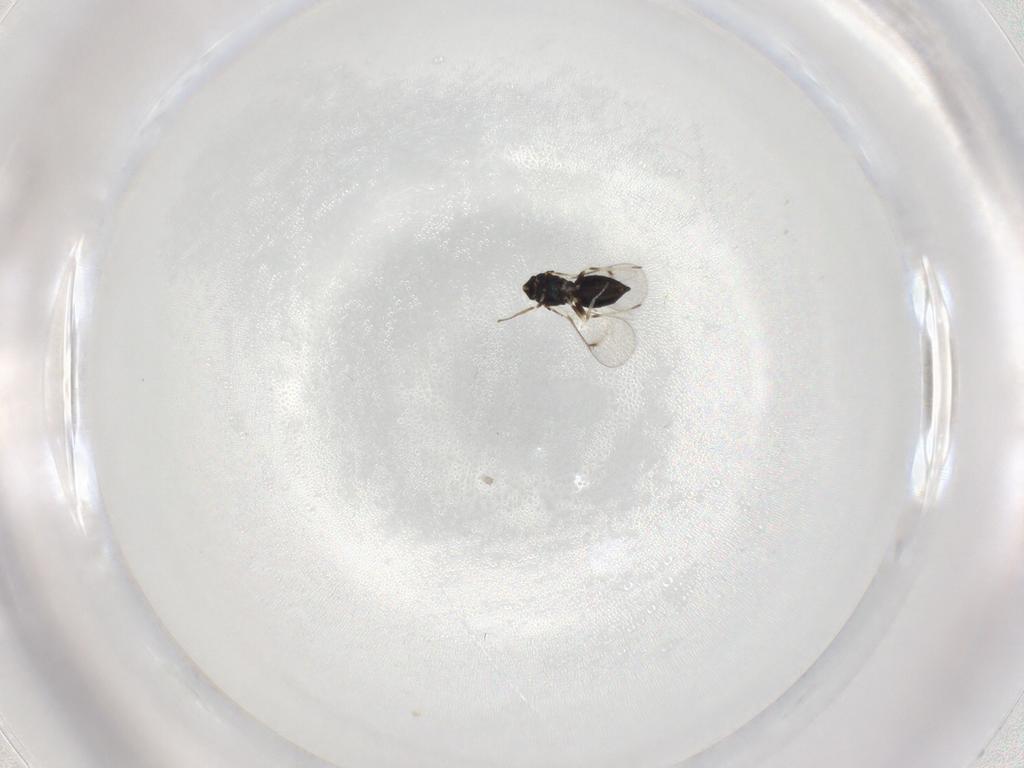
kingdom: Animalia
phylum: Arthropoda
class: Insecta
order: Hymenoptera
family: Eulophidae
